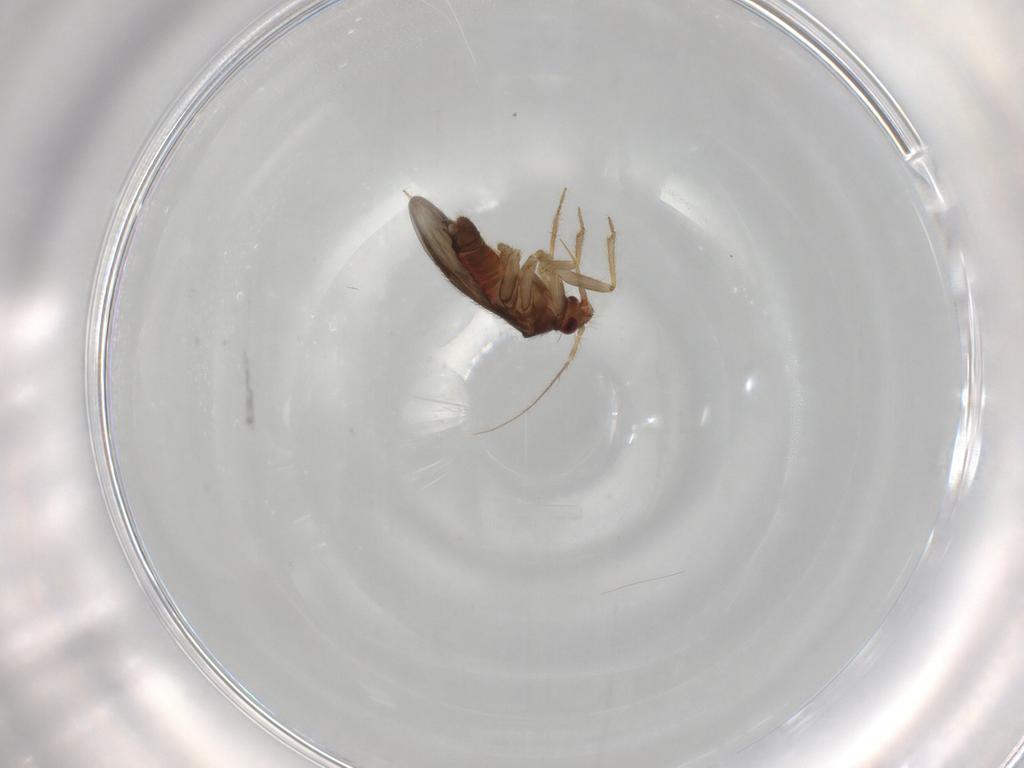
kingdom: Animalia
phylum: Arthropoda
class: Insecta
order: Hemiptera
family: Ceratocombidae
